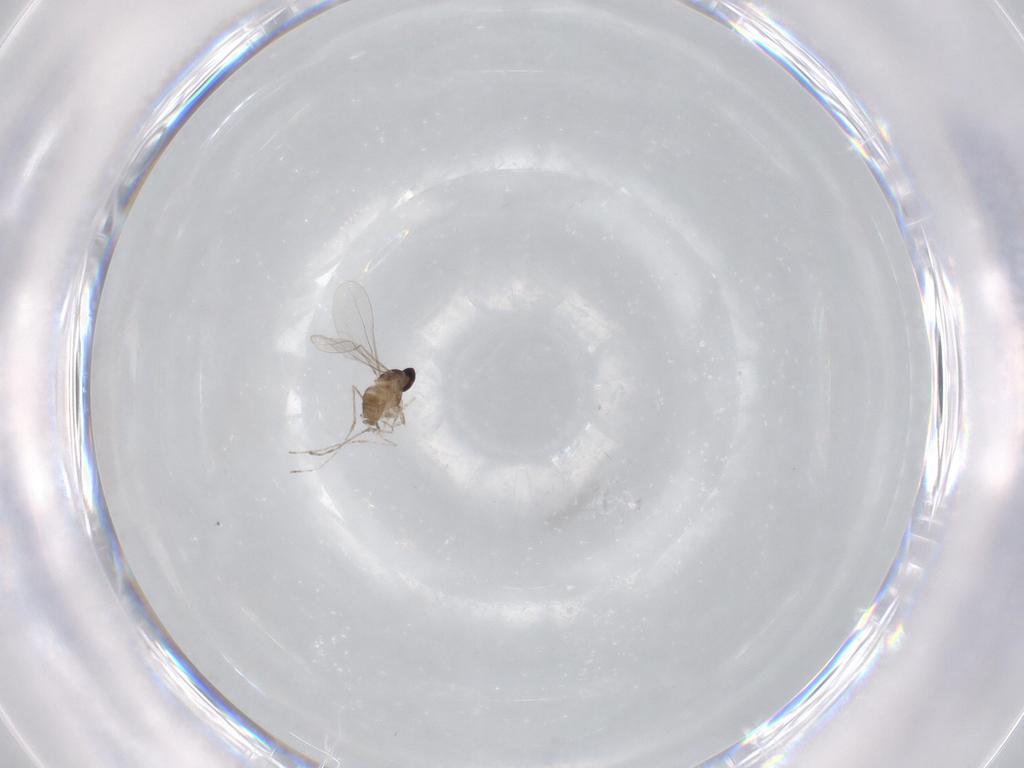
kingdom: Animalia
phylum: Arthropoda
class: Insecta
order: Diptera
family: Cecidomyiidae
